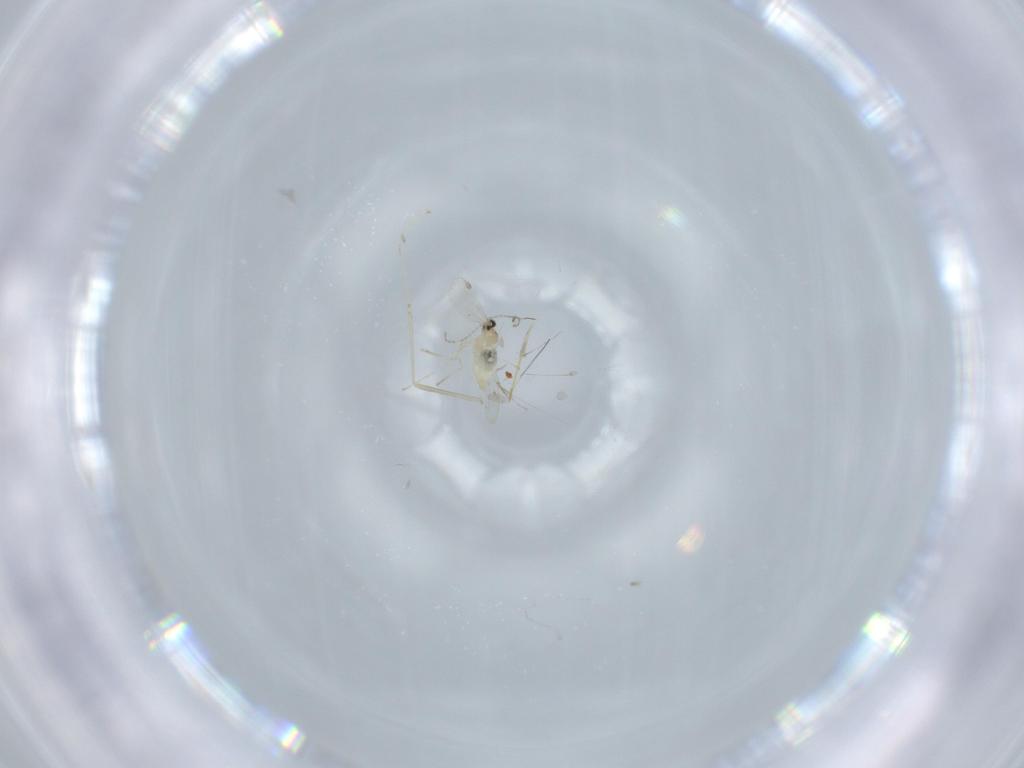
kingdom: Animalia
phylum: Arthropoda
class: Insecta
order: Diptera
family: Cecidomyiidae
